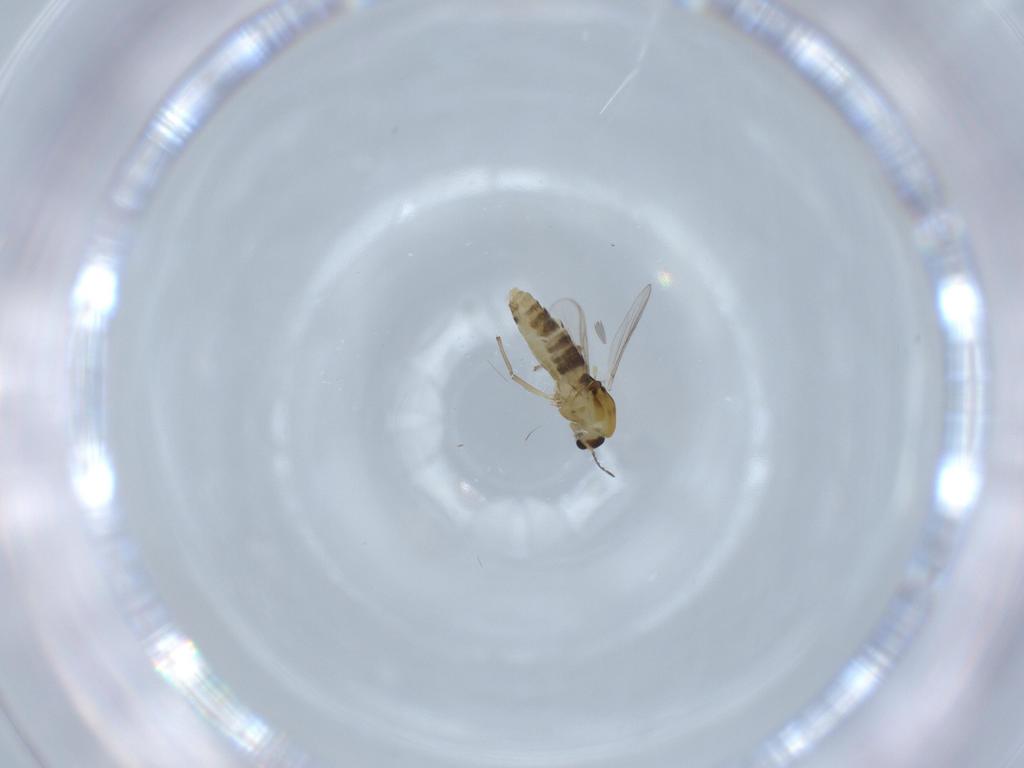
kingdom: Animalia
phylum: Arthropoda
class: Insecta
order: Diptera
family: Chironomidae
